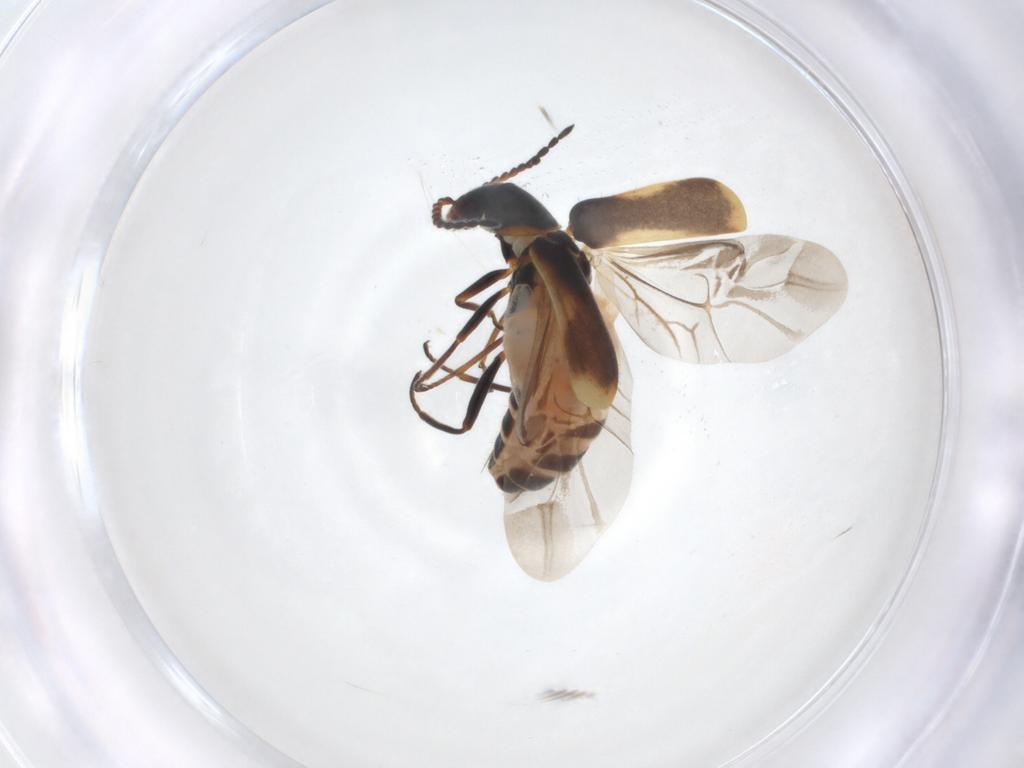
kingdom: Animalia
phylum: Arthropoda
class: Insecta
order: Coleoptera
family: Melyridae
